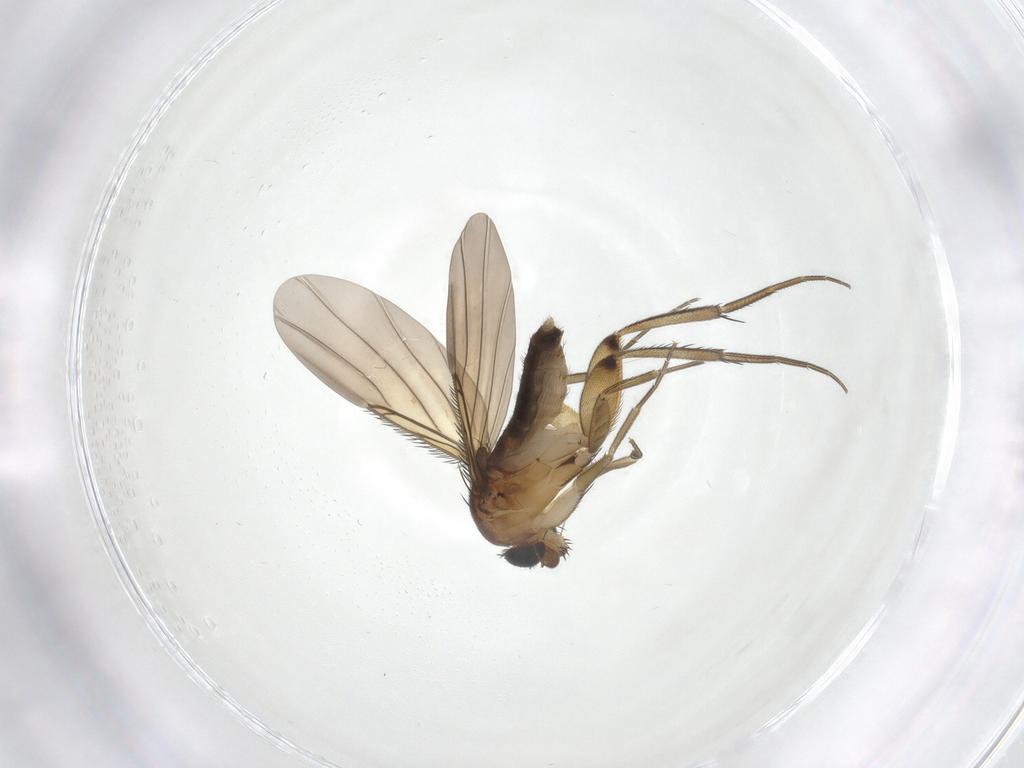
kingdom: Animalia
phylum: Arthropoda
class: Insecta
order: Diptera
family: Phoridae
